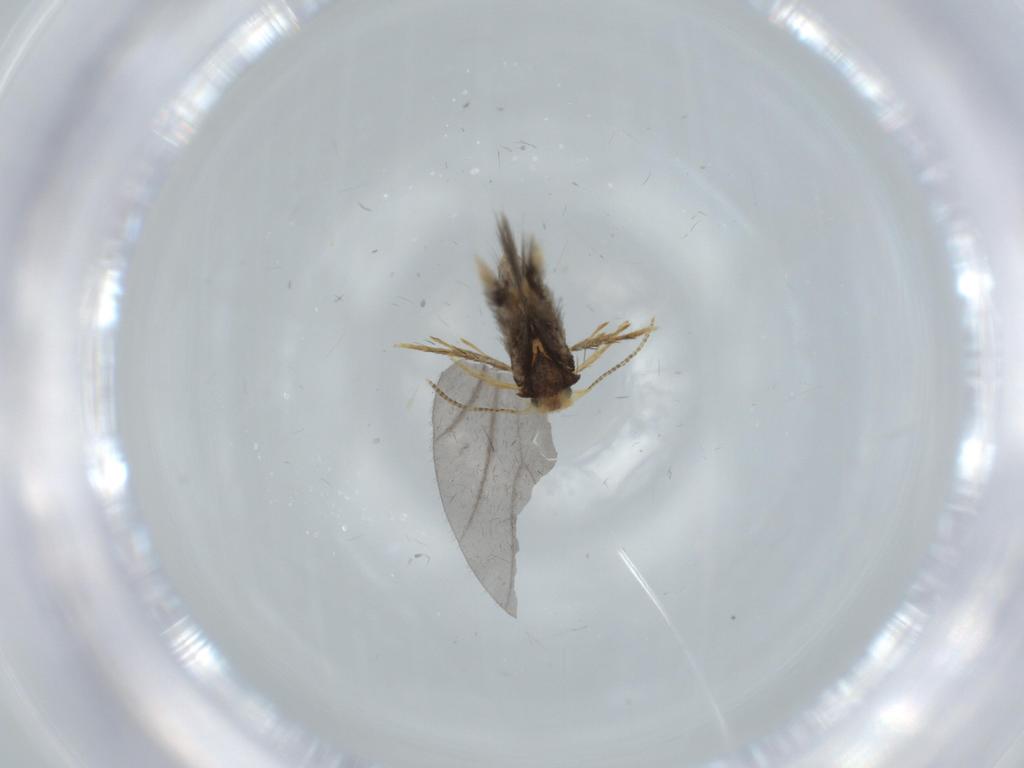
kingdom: Animalia
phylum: Arthropoda
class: Insecta
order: Lepidoptera
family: Nepticulidae
